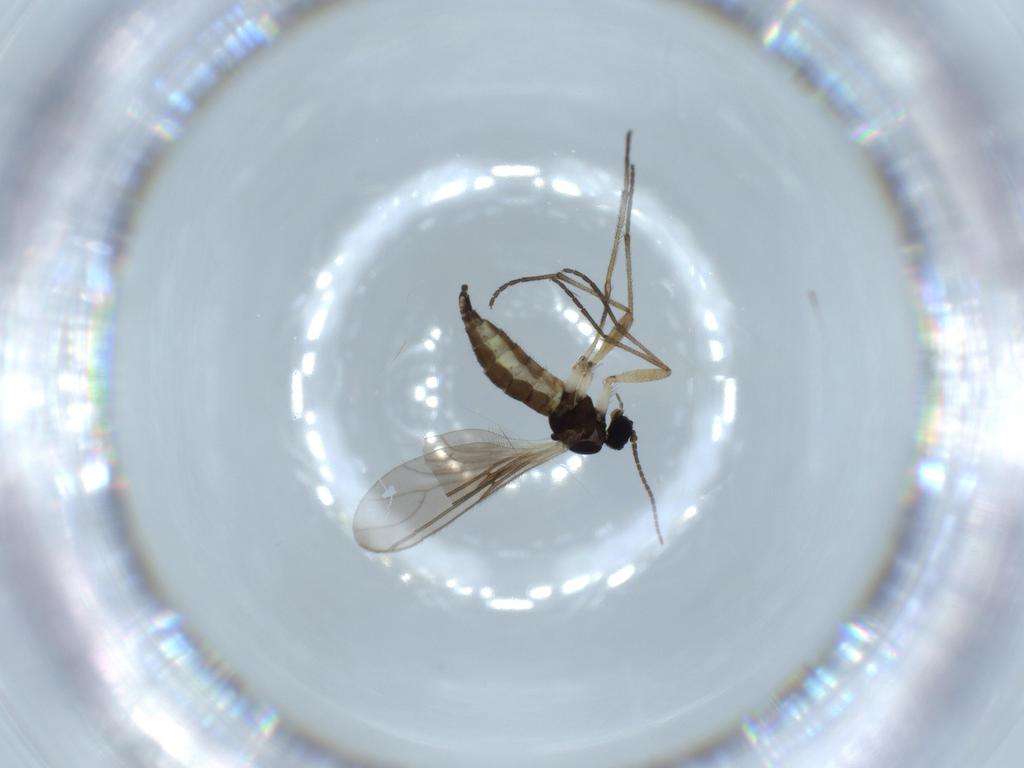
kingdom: Animalia
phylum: Arthropoda
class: Insecta
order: Diptera
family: Sciaridae
